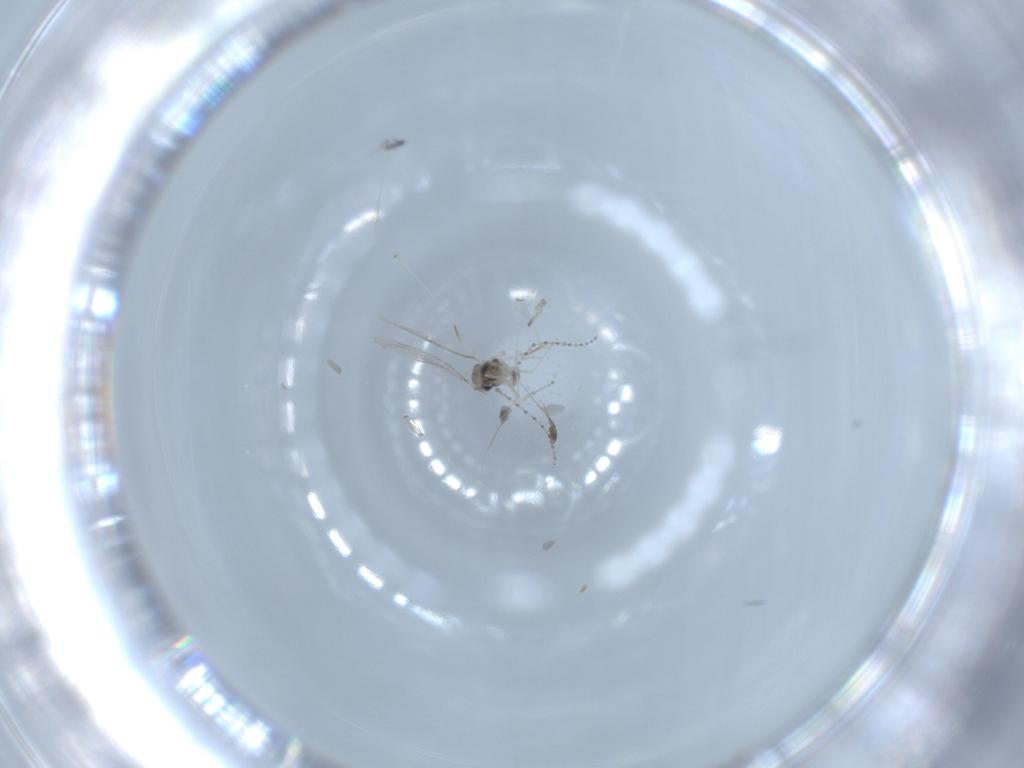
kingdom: Animalia
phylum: Arthropoda
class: Insecta
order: Diptera
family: Cecidomyiidae
